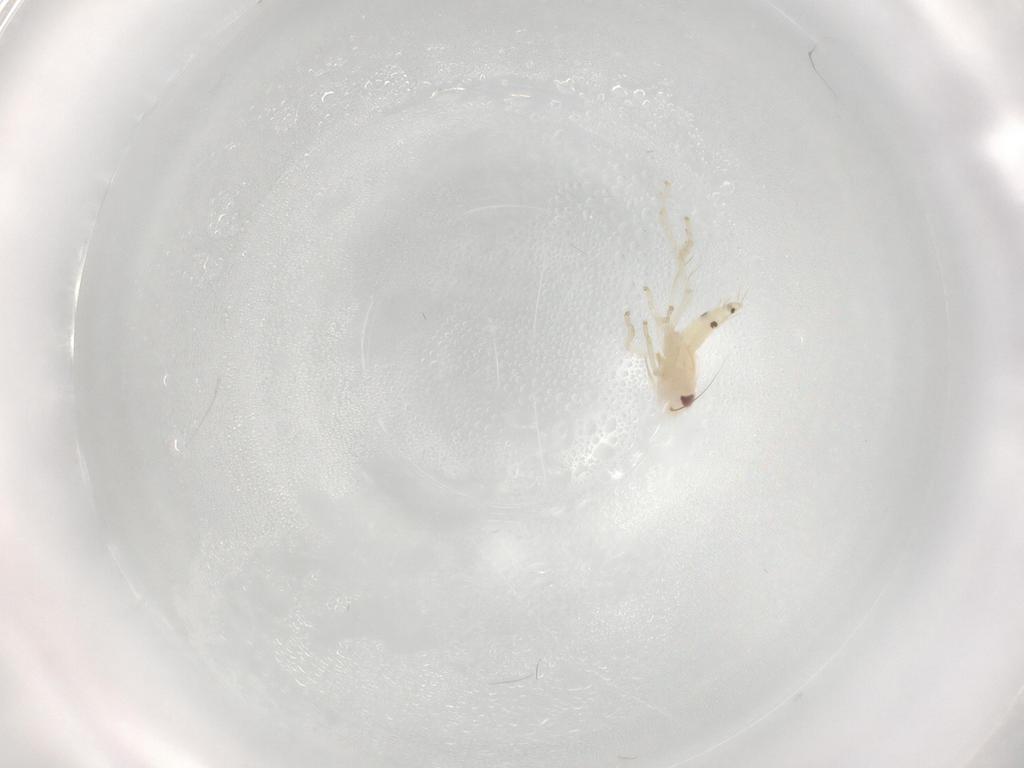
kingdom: Animalia
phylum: Arthropoda
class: Insecta
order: Hemiptera
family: Cicadellidae
